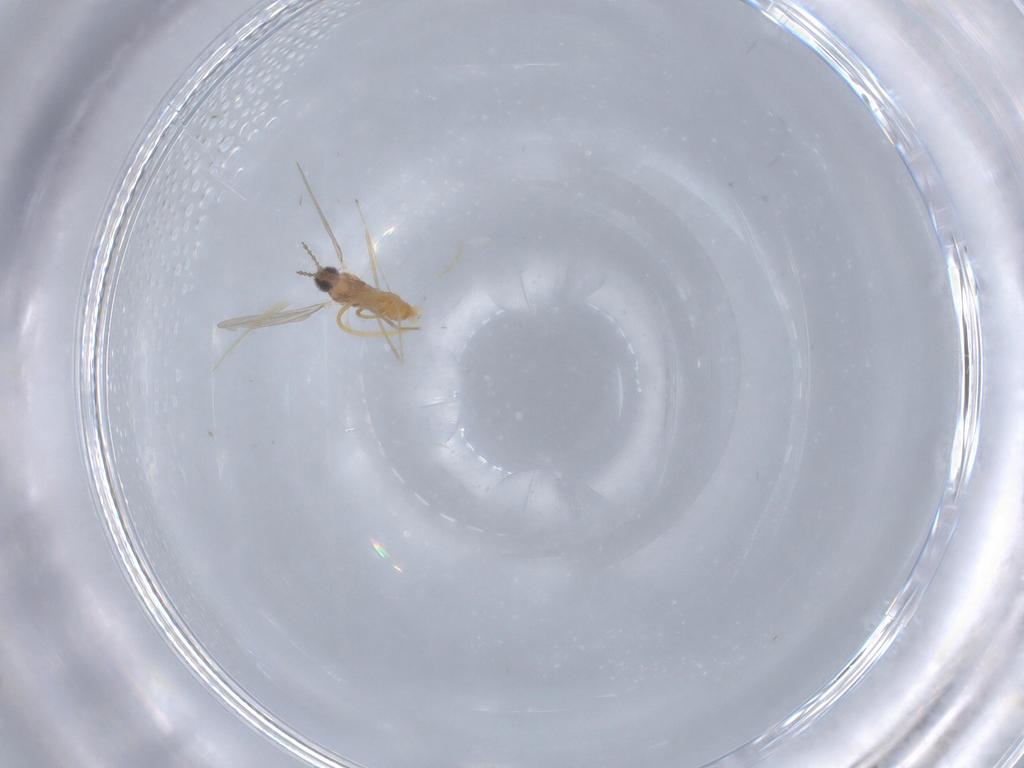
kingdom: Animalia
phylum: Arthropoda
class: Insecta
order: Diptera
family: Cecidomyiidae
